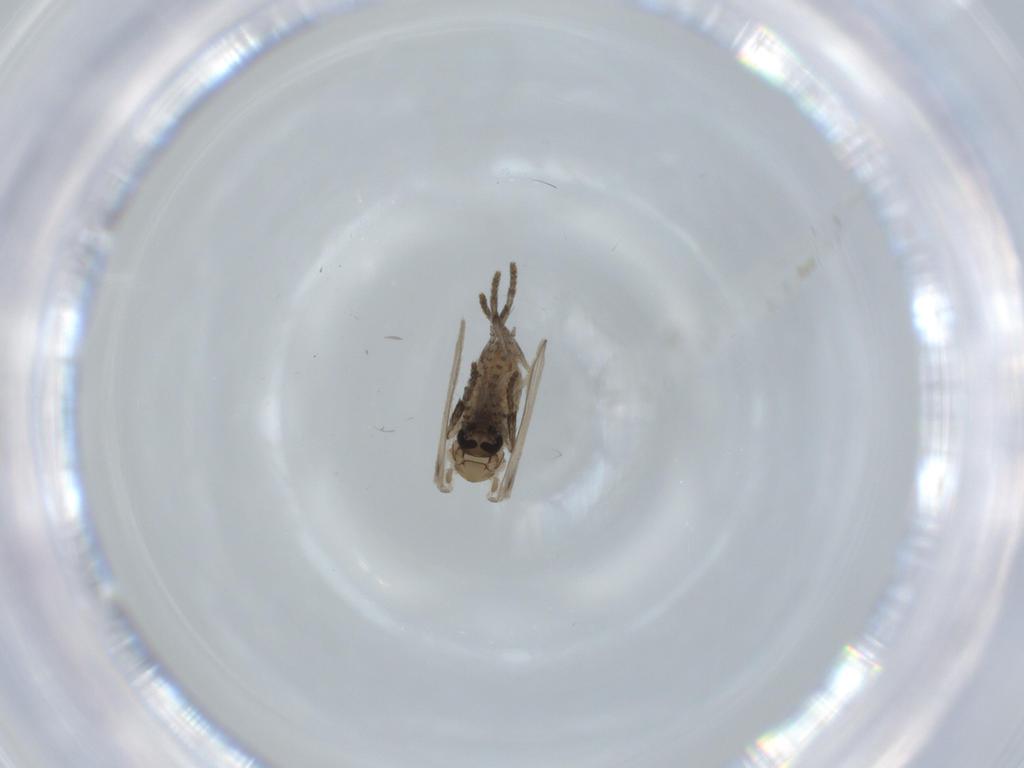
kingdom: Animalia
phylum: Arthropoda
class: Insecta
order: Diptera
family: Psychodidae
